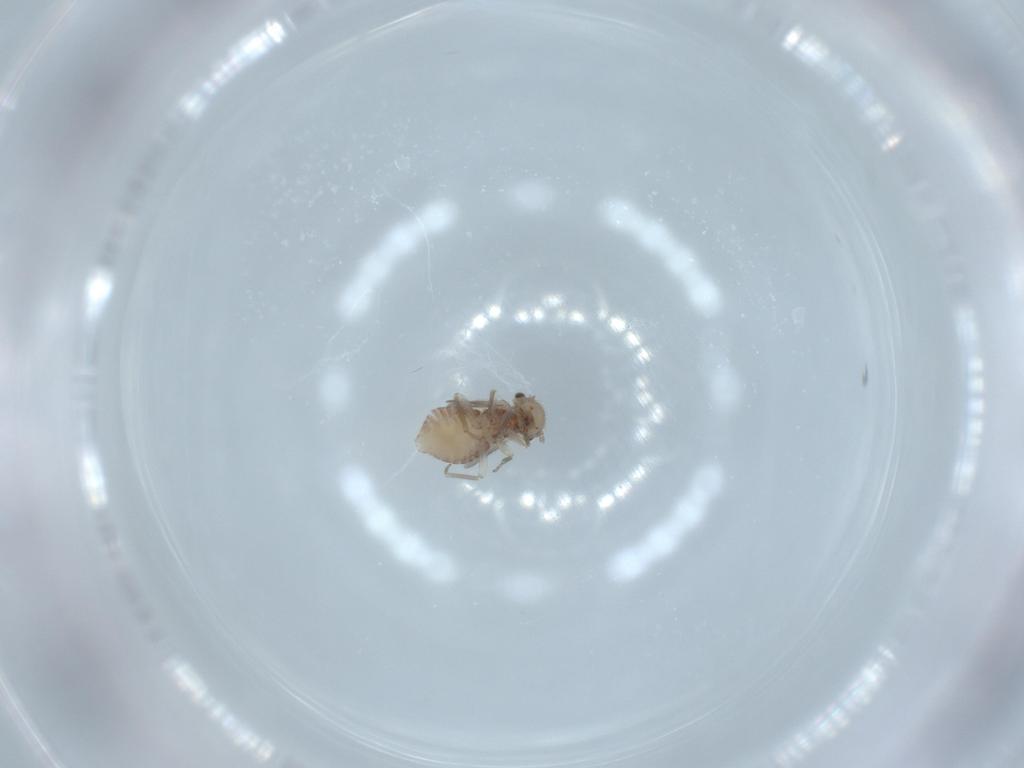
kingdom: Animalia
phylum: Arthropoda
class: Insecta
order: Psocodea
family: Ectopsocidae
